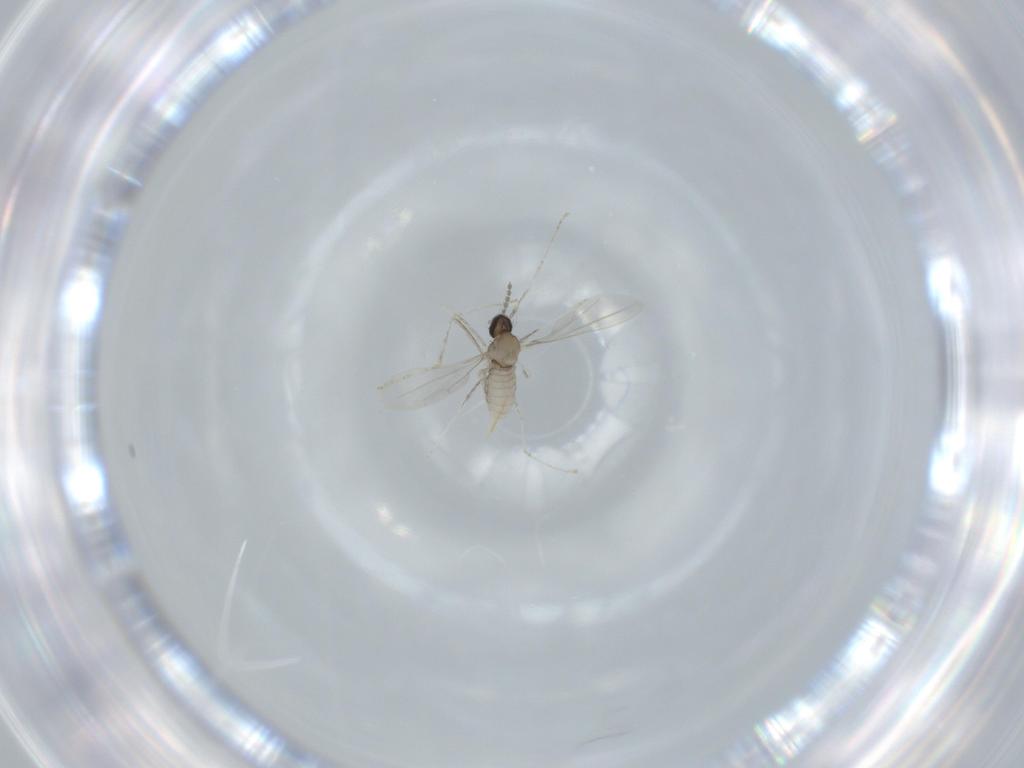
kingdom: Animalia
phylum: Arthropoda
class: Insecta
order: Diptera
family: Cecidomyiidae
